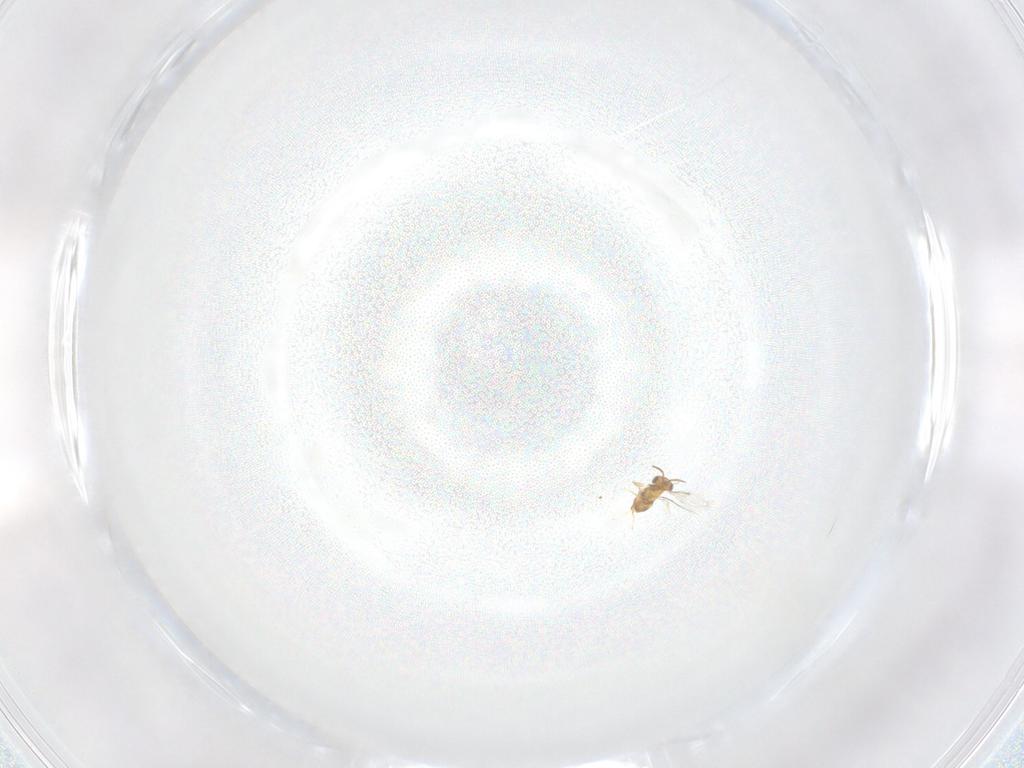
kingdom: Animalia
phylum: Arthropoda
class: Insecta
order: Hymenoptera
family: Aphelinidae
